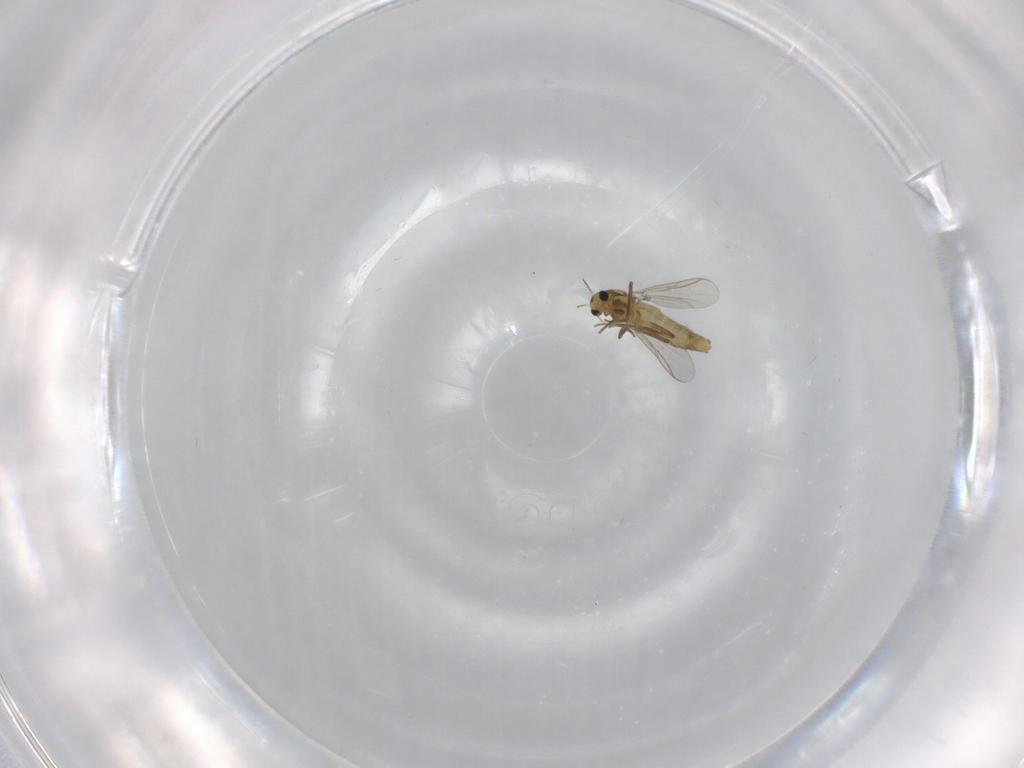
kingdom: Animalia
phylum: Arthropoda
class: Insecta
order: Diptera
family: Chironomidae
